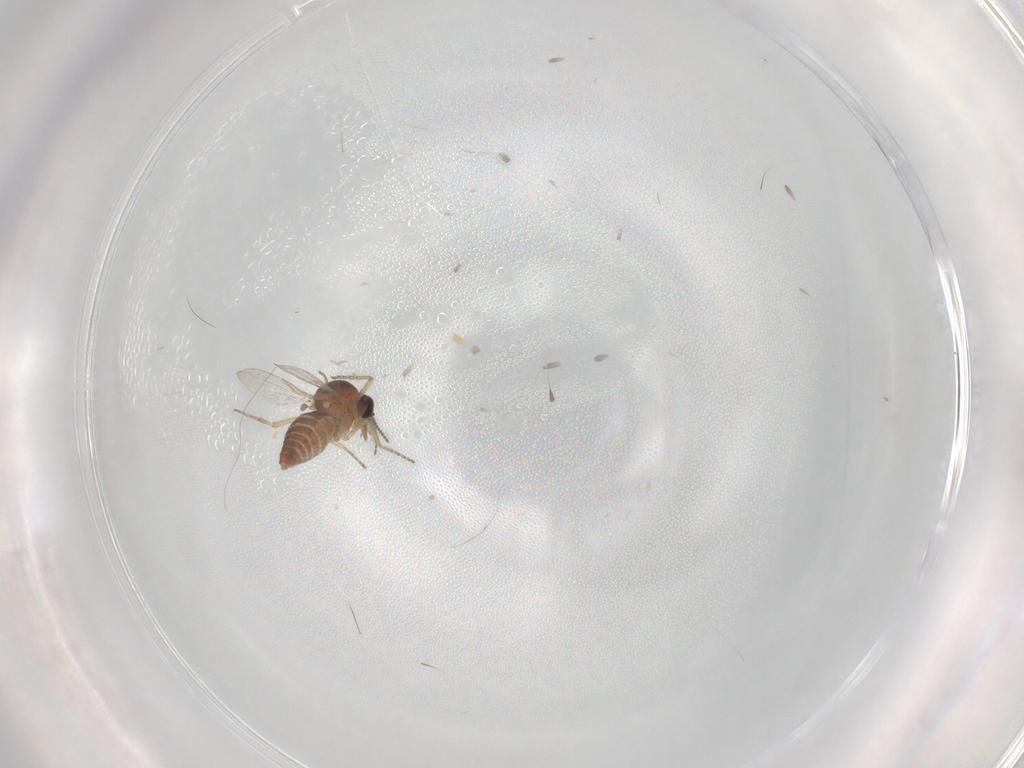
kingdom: Animalia
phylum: Arthropoda
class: Insecta
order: Diptera
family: Ceratopogonidae
